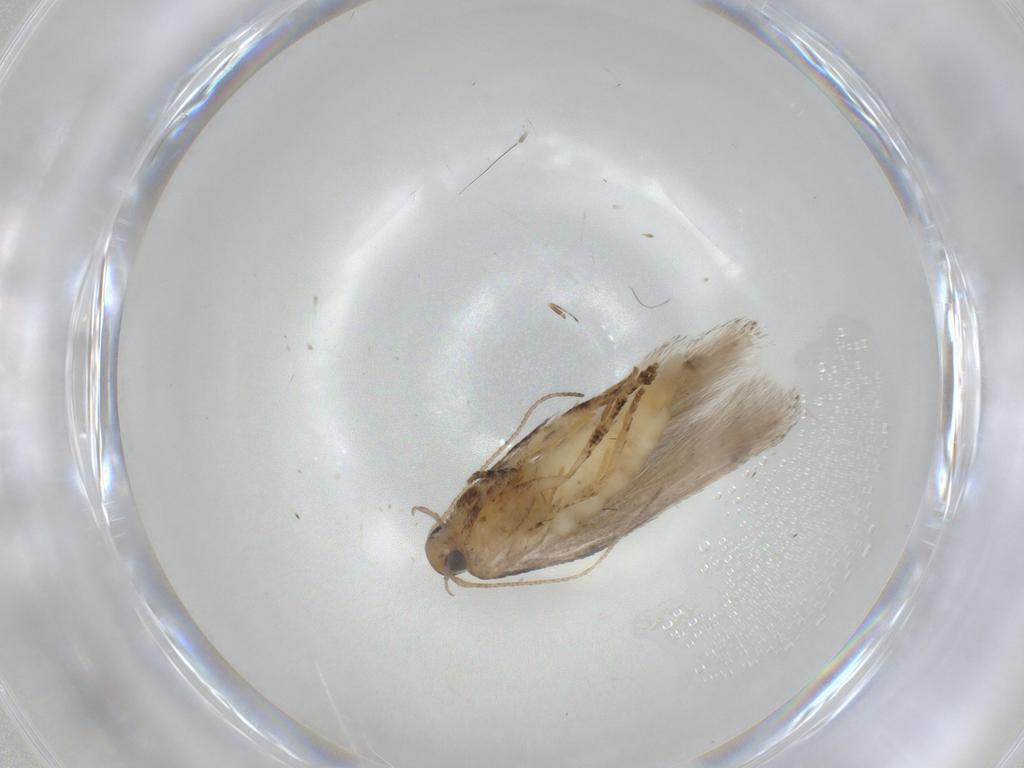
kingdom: Animalia
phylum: Arthropoda
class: Insecta
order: Lepidoptera
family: Gelechiidae
